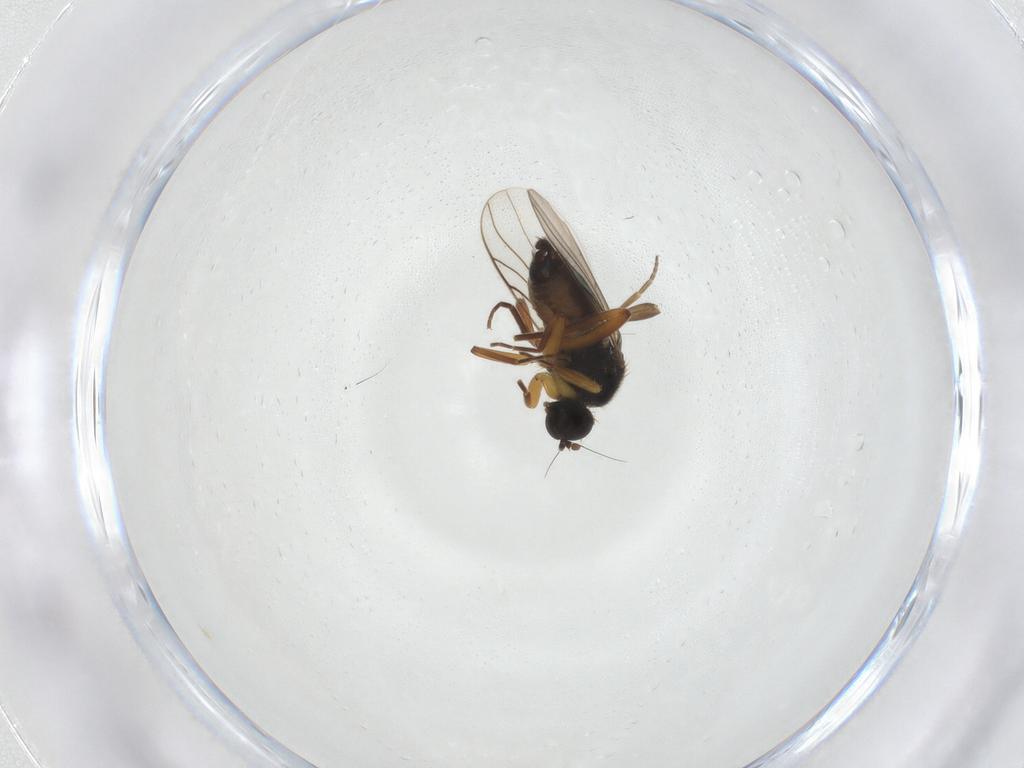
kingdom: Animalia
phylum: Arthropoda
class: Insecta
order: Diptera
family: Hybotidae
